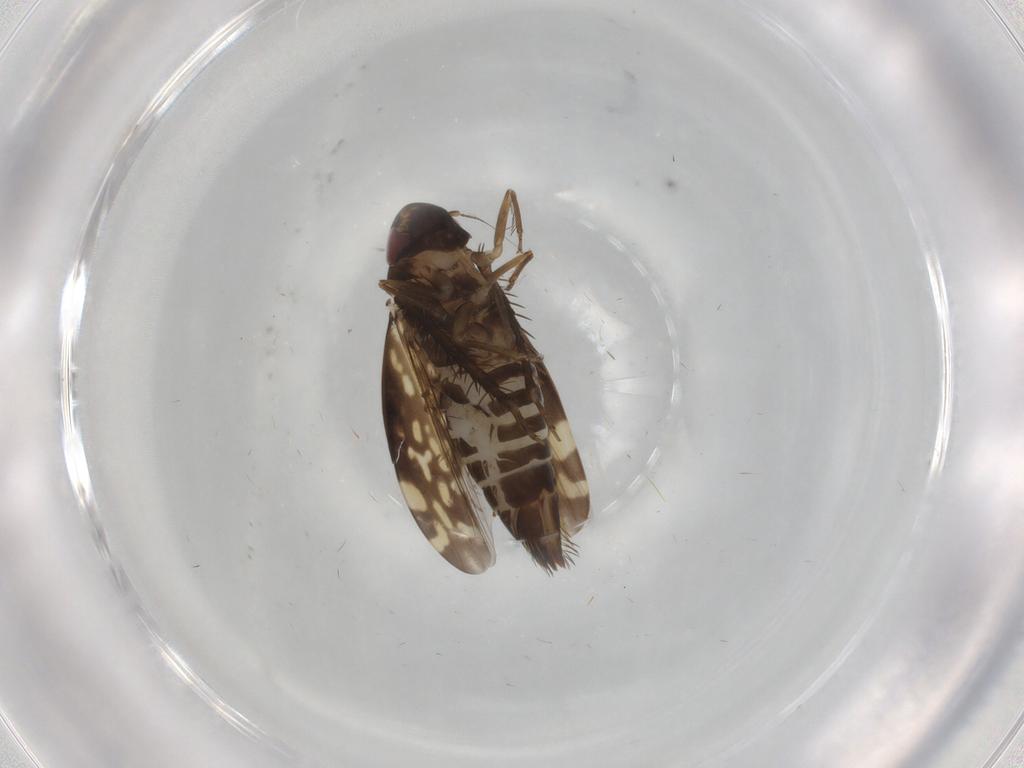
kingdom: Animalia
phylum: Arthropoda
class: Insecta
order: Hemiptera
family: Cicadellidae
